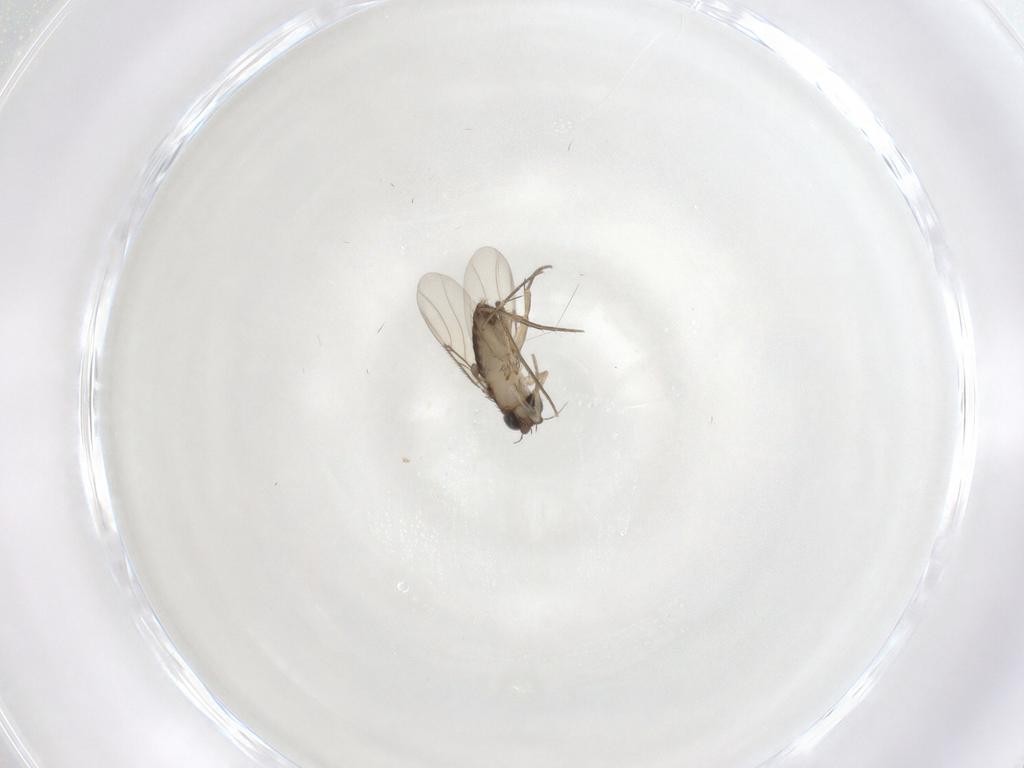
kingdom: Animalia
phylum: Arthropoda
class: Insecta
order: Diptera
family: Phoridae
